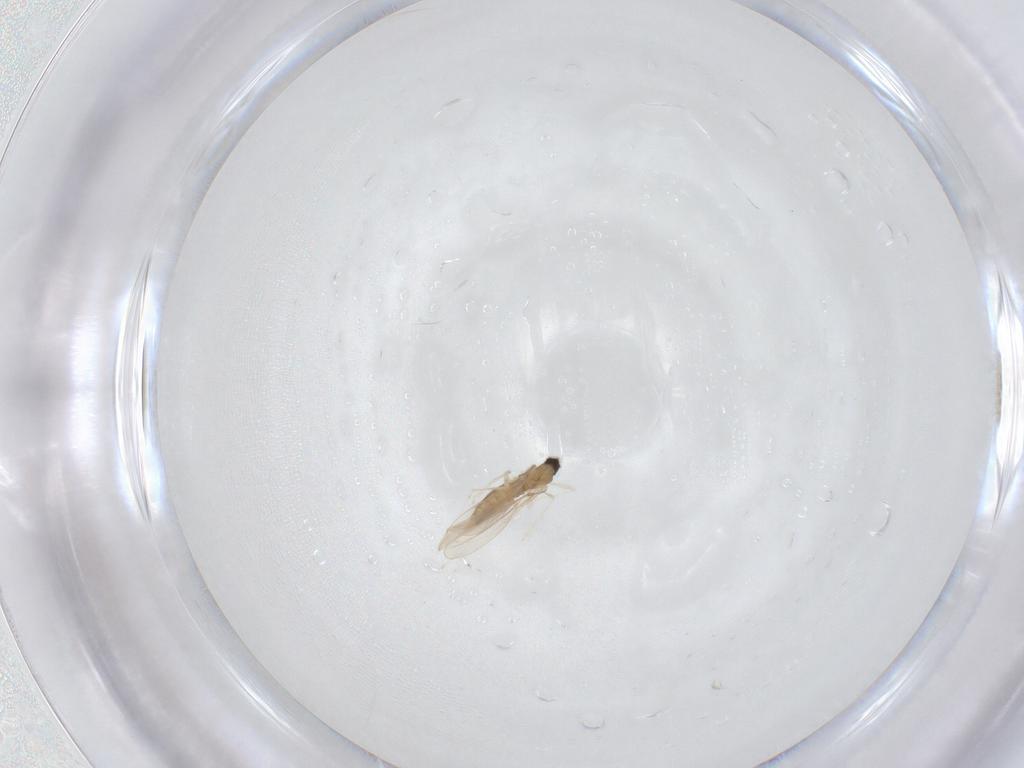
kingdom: Animalia
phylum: Arthropoda
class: Insecta
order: Diptera
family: Cecidomyiidae
